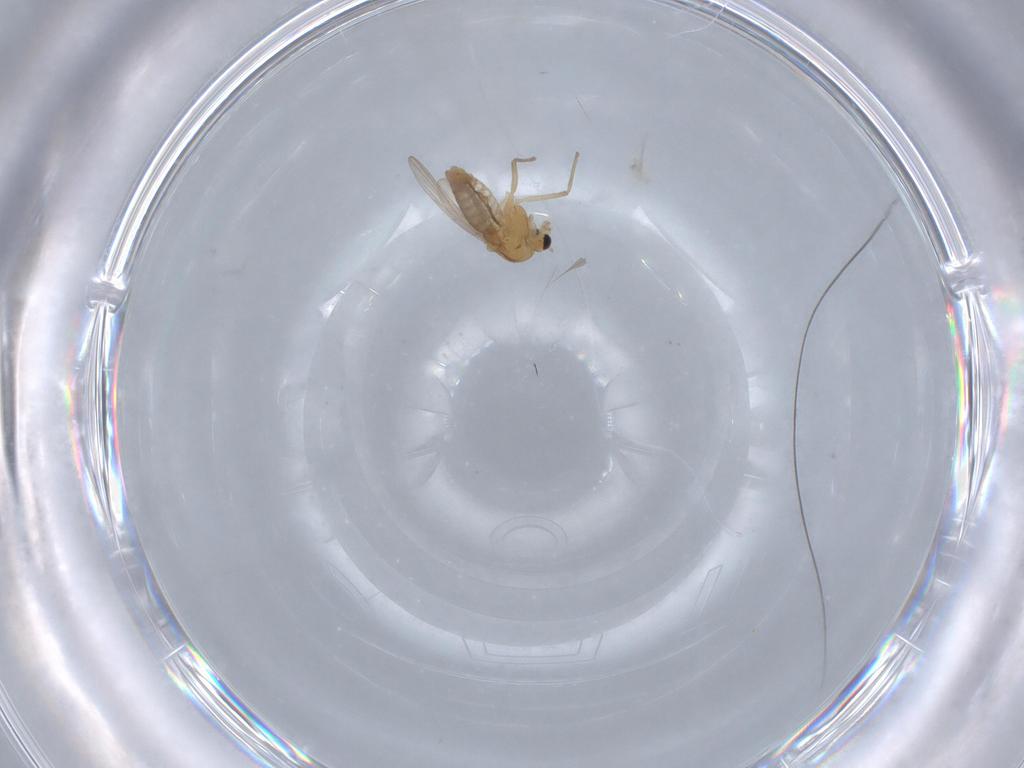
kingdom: Animalia
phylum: Arthropoda
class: Insecta
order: Diptera
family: Chironomidae
